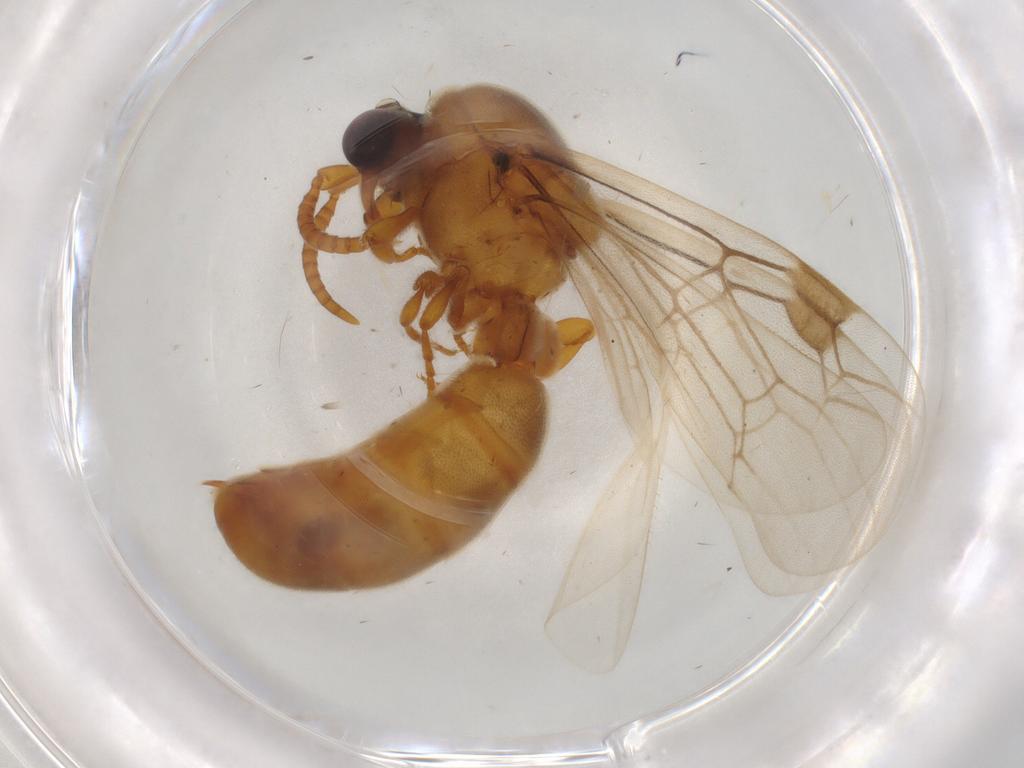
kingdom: Animalia
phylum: Arthropoda
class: Insecta
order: Hymenoptera
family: Formicidae
